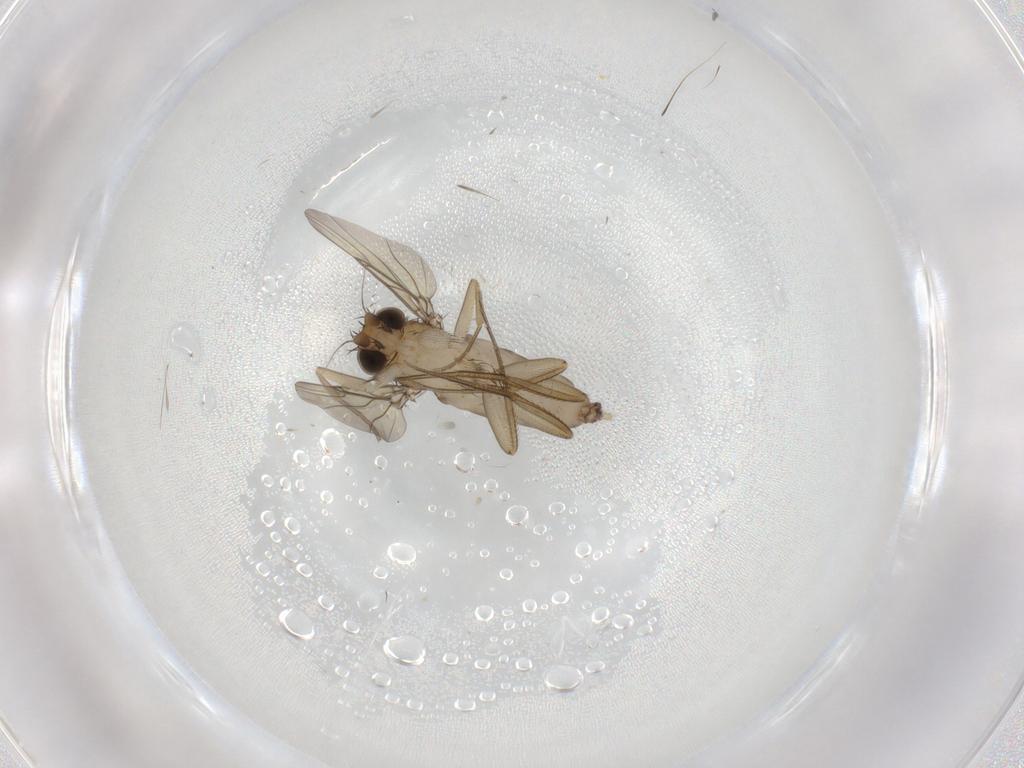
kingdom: Animalia
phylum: Arthropoda
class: Insecta
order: Diptera
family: Phoridae
